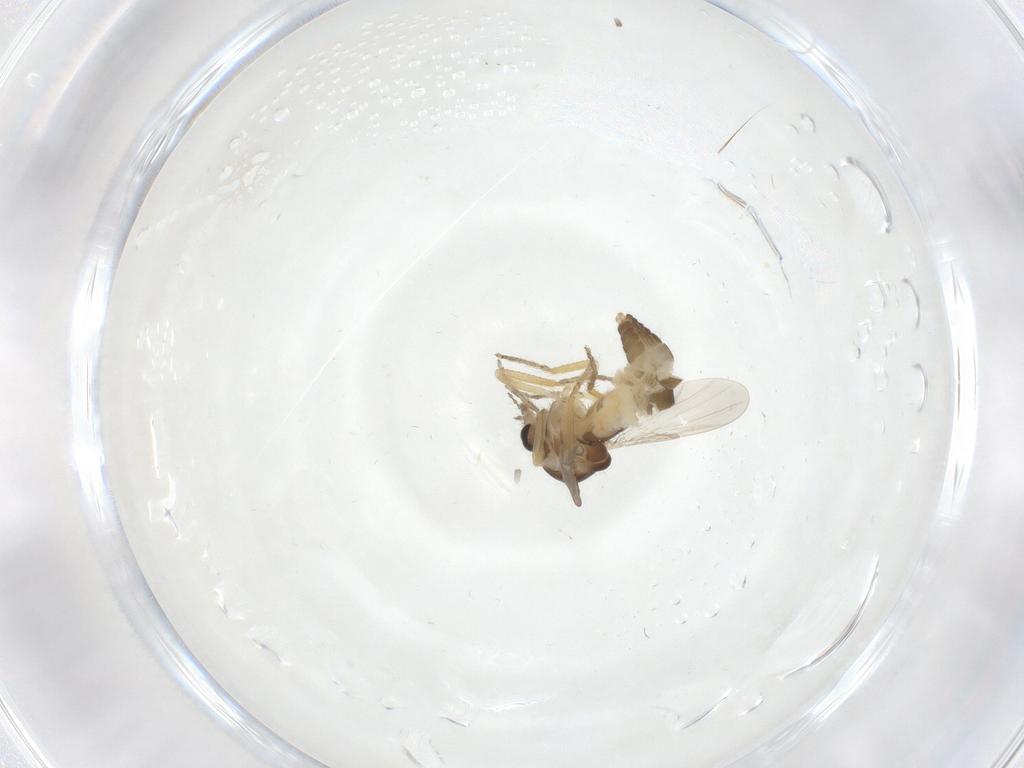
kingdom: Animalia
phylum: Arthropoda
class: Insecta
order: Diptera
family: Ceratopogonidae
